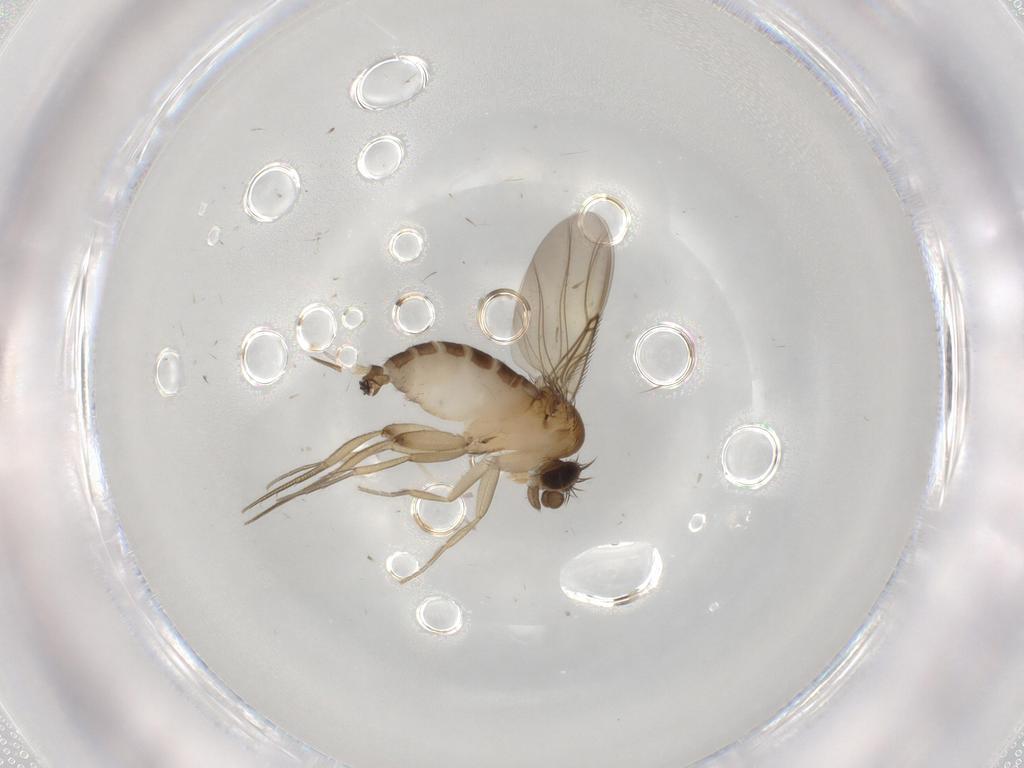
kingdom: Animalia
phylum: Arthropoda
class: Insecta
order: Diptera
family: Phoridae
